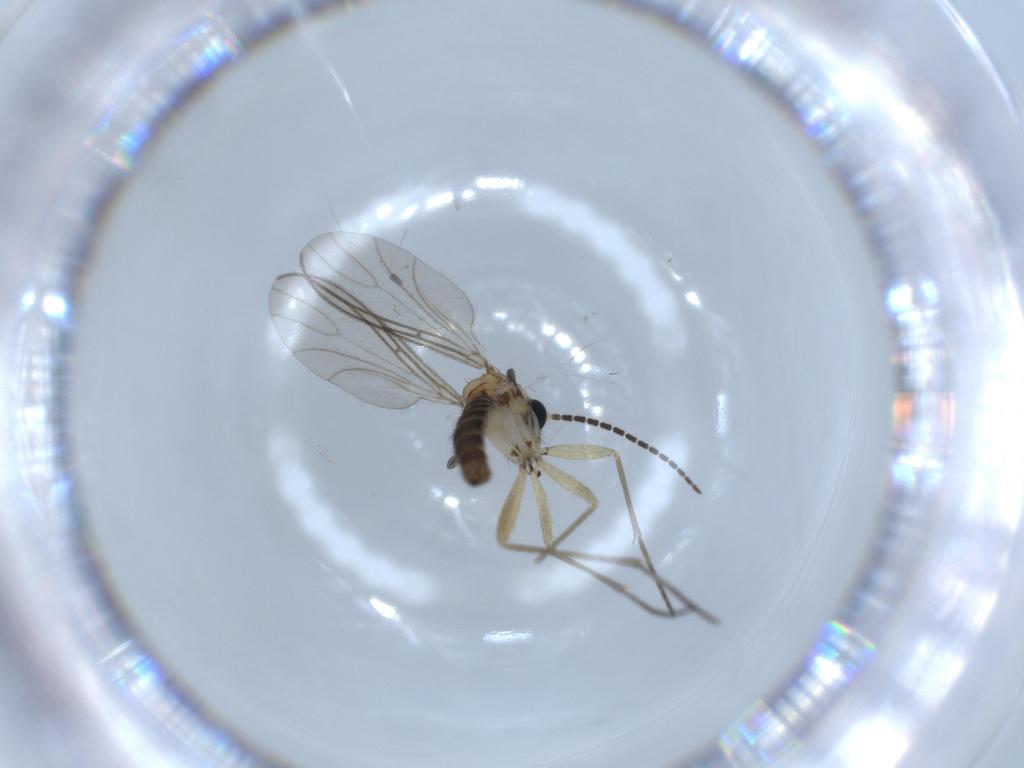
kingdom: Animalia
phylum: Arthropoda
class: Insecta
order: Diptera
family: Sciaridae
